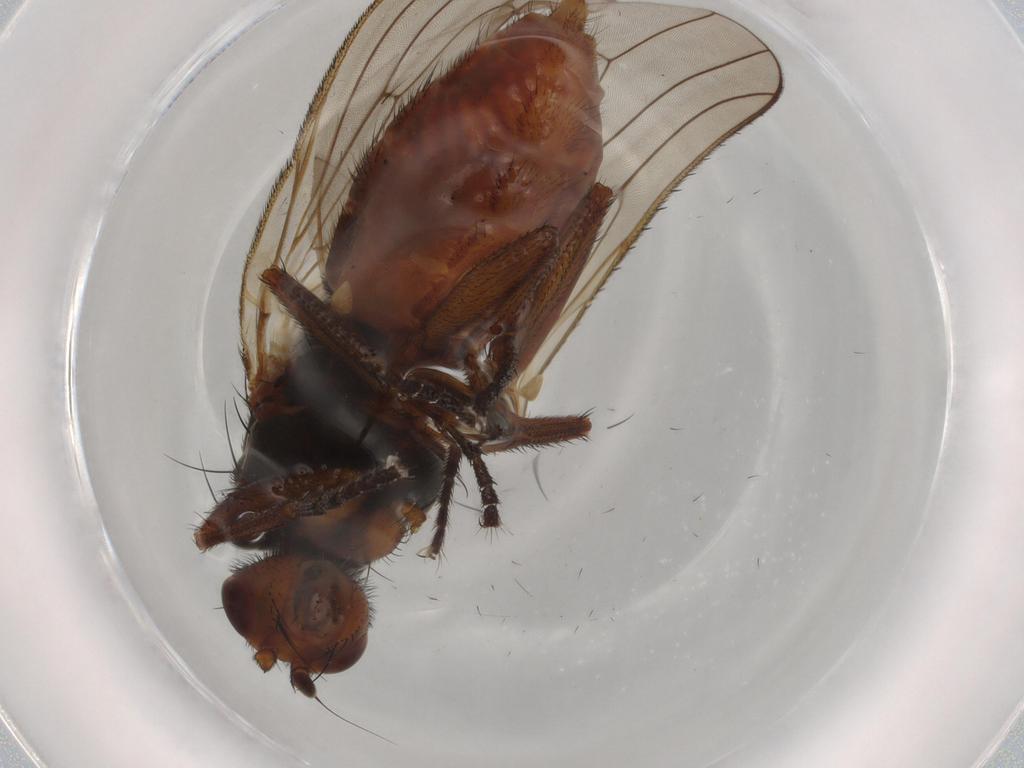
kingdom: Animalia
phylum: Arthropoda
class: Insecta
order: Diptera
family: Heleomyzidae
